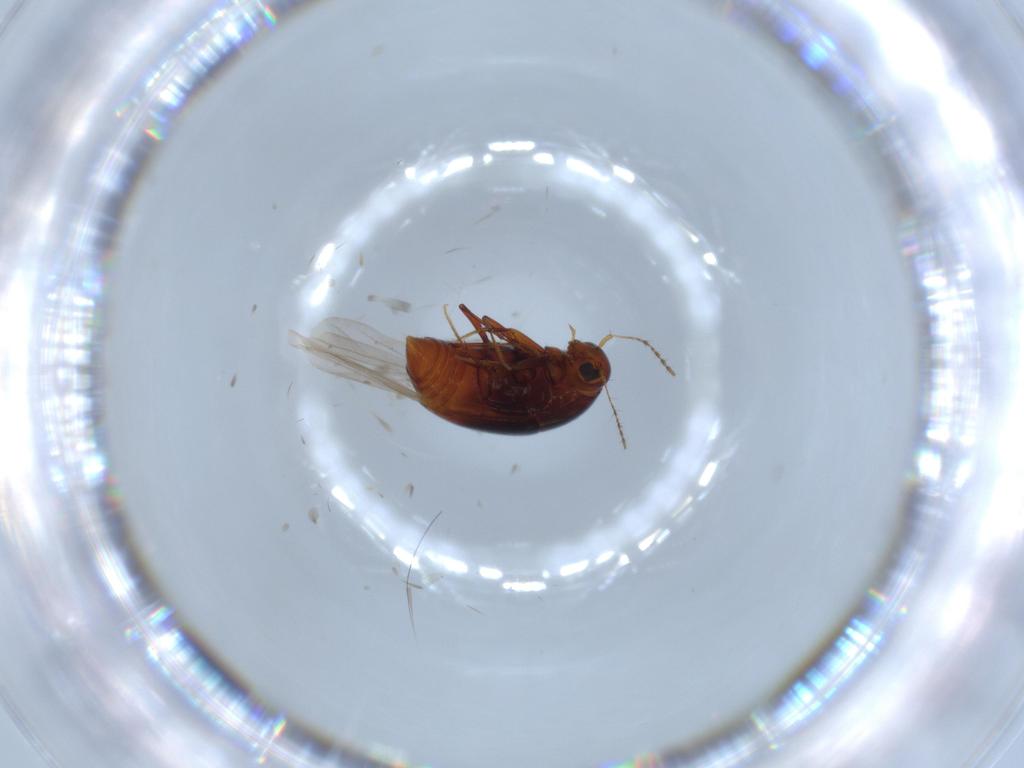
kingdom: Animalia
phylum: Arthropoda
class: Insecta
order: Coleoptera
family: Staphylinidae
